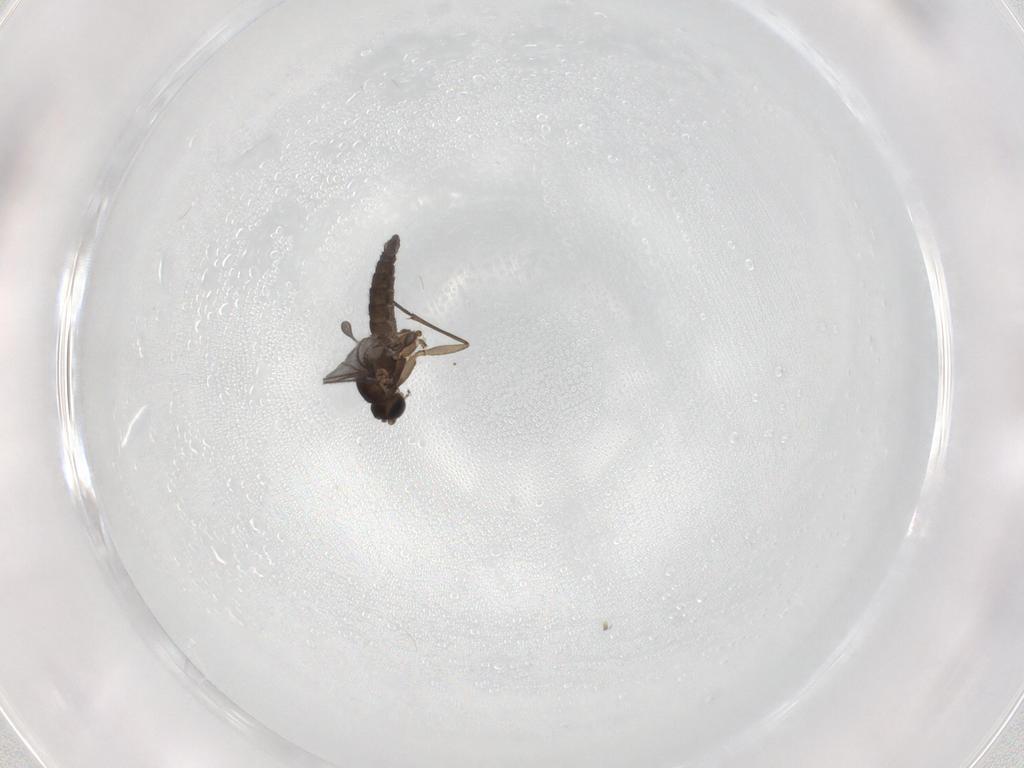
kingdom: Animalia
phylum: Arthropoda
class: Insecta
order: Diptera
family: Sciaridae
